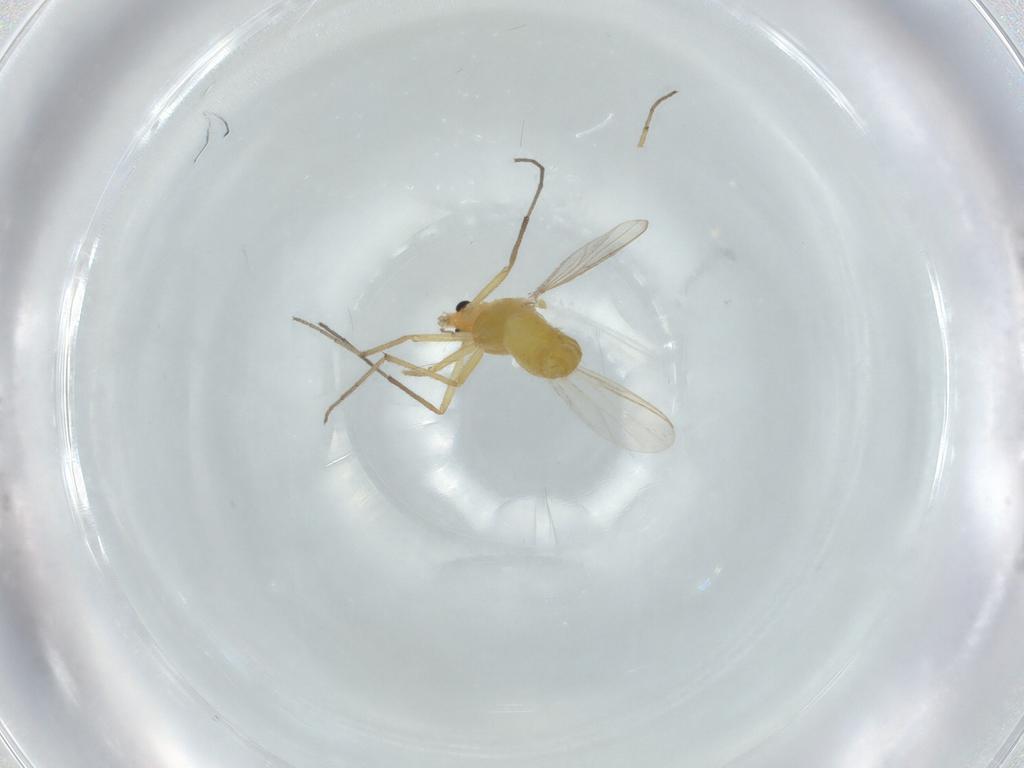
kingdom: Animalia
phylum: Arthropoda
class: Insecta
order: Diptera
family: Chironomidae
